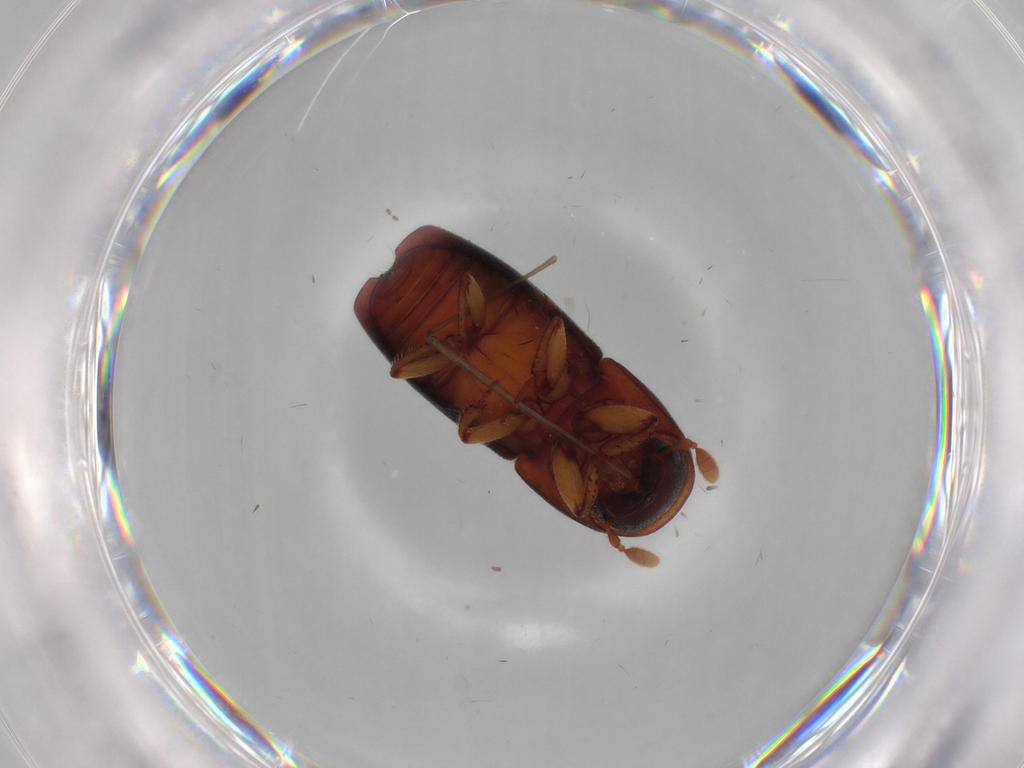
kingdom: Animalia
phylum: Arthropoda
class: Insecta
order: Coleoptera
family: Curculionidae
